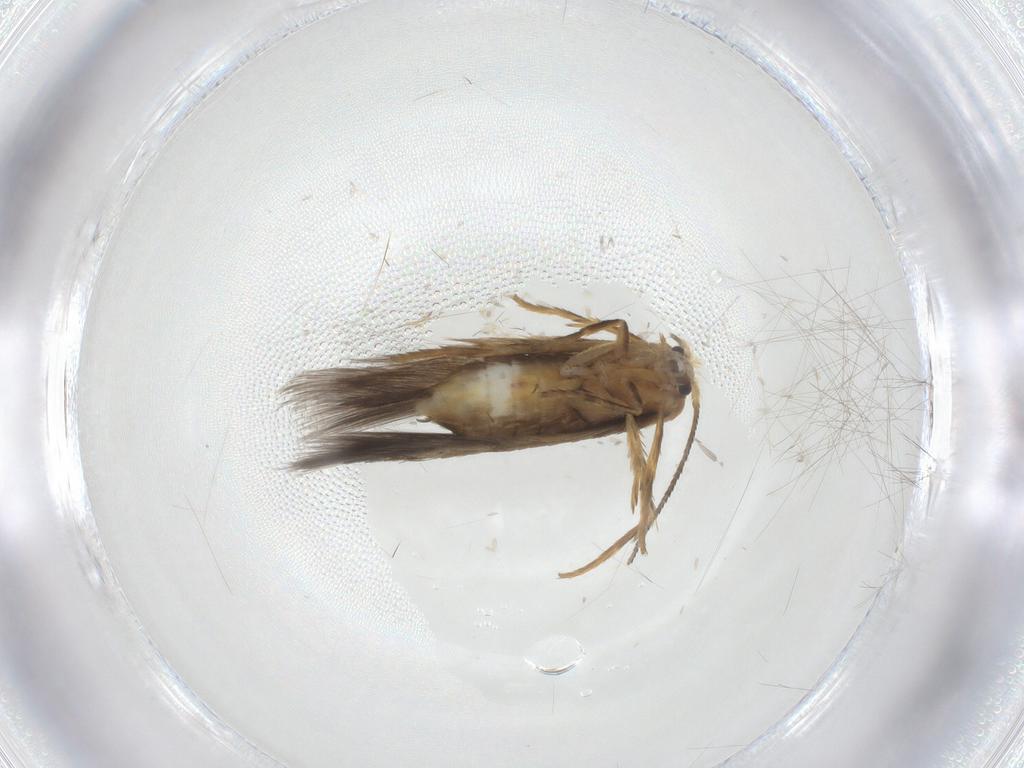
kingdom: Animalia
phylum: Arthropoda
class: Insecta
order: Lepidoptera
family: Nepticulidae
